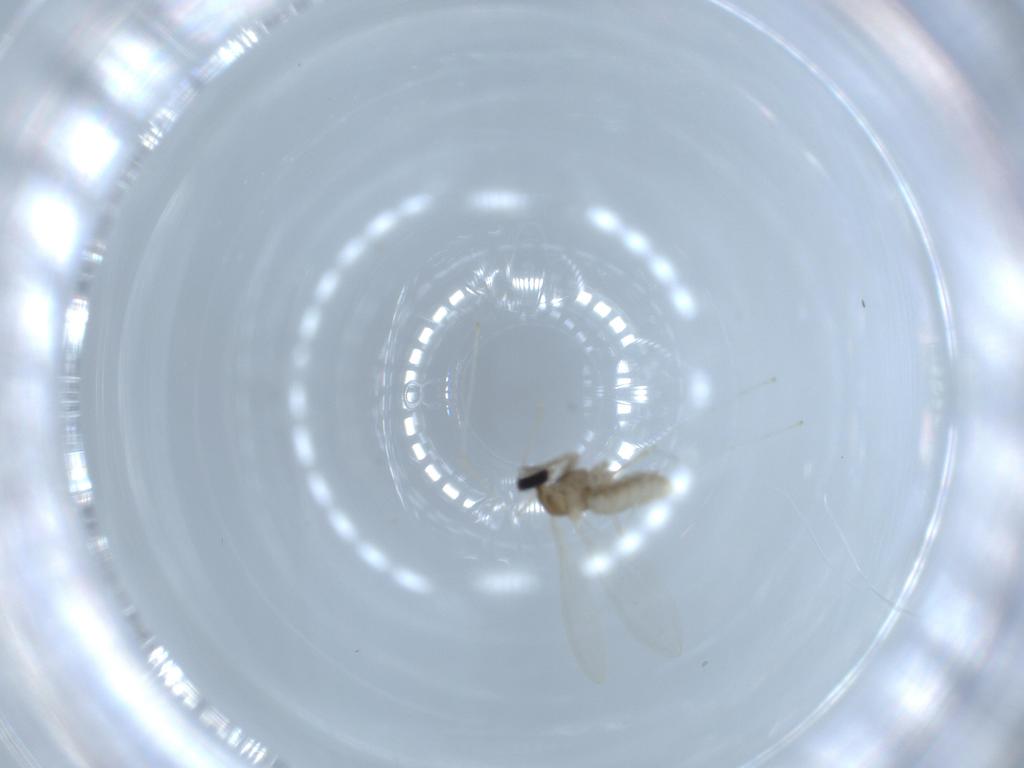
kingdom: Animalia
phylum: Arthropoda
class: Insecta
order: Diptera
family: Cecidomyiidae
